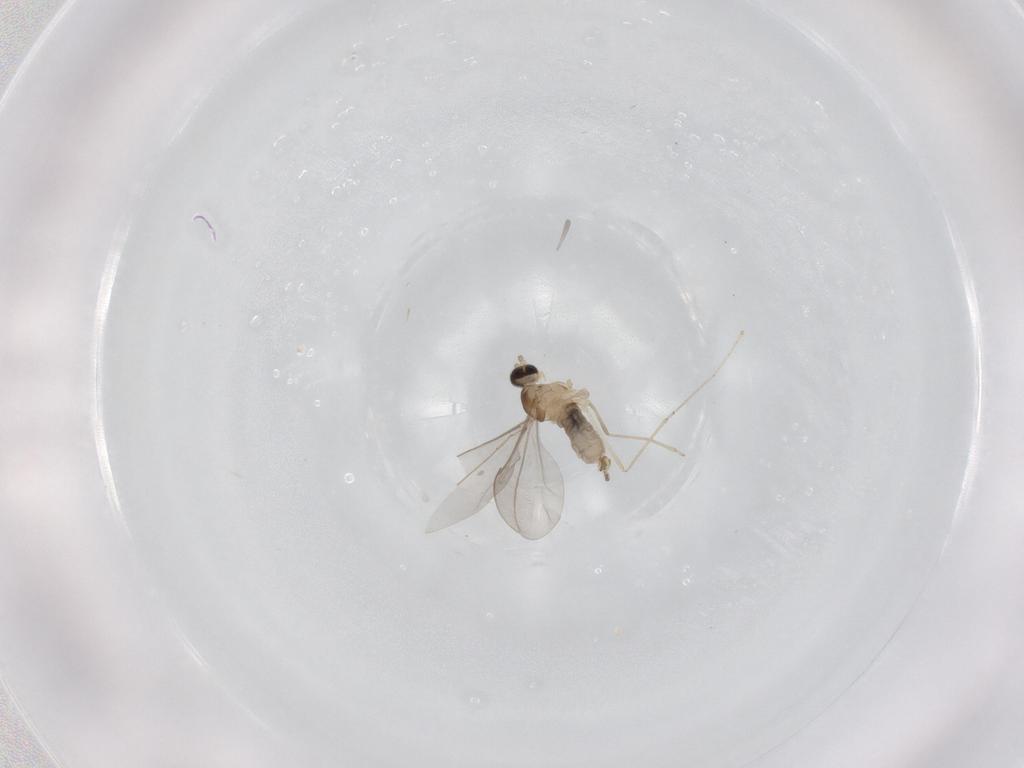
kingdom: Animalia
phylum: Arthropoda
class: Insecta
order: Diptera
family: Cecidomyiidae
